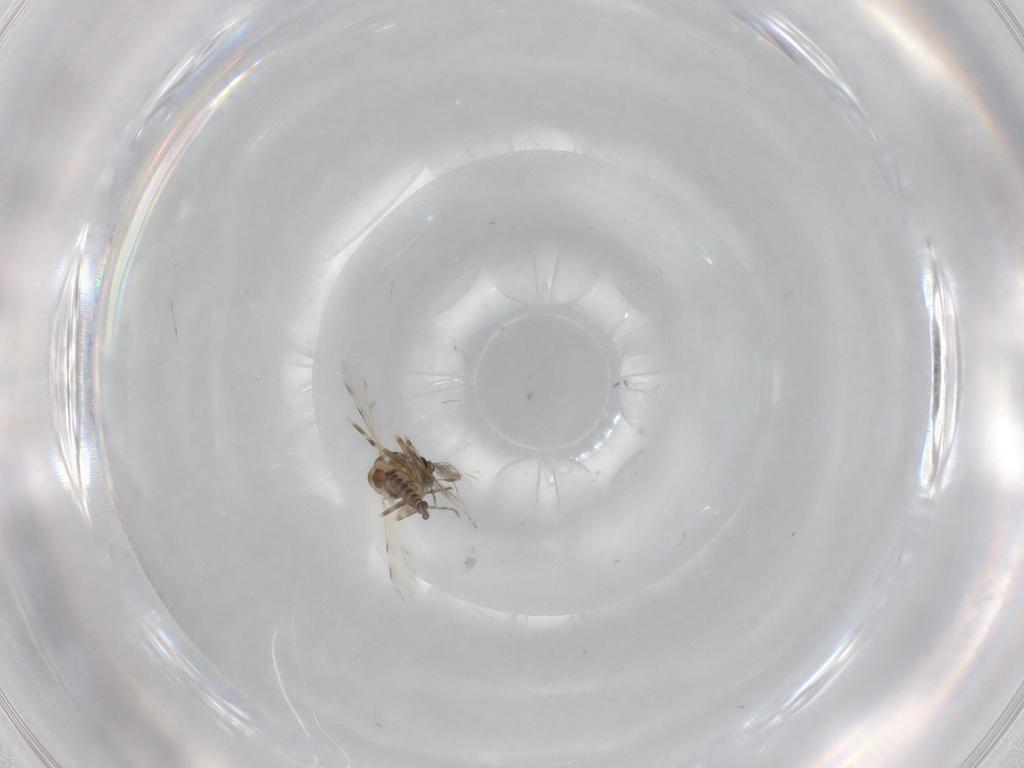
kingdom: Animalia
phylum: Arthropoda
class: Insecta
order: Diptera
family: Ceratopogonidae
